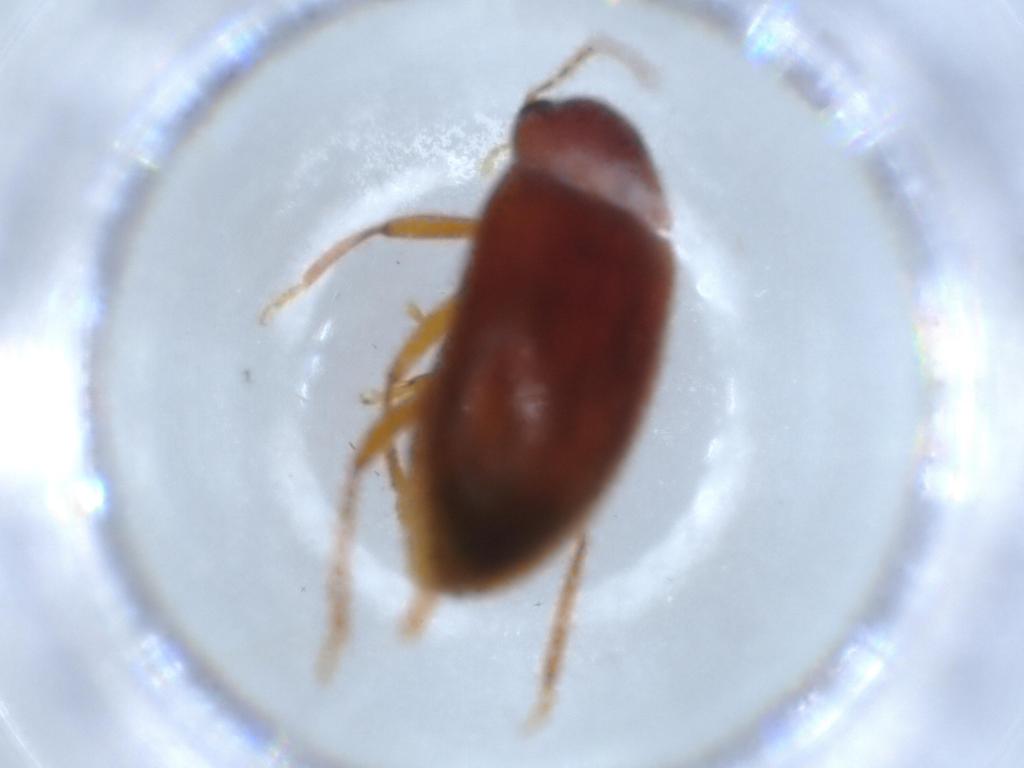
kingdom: Animalia
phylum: Arthropoda
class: Insecta
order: Coleoptera
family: Ptilodactylidae
